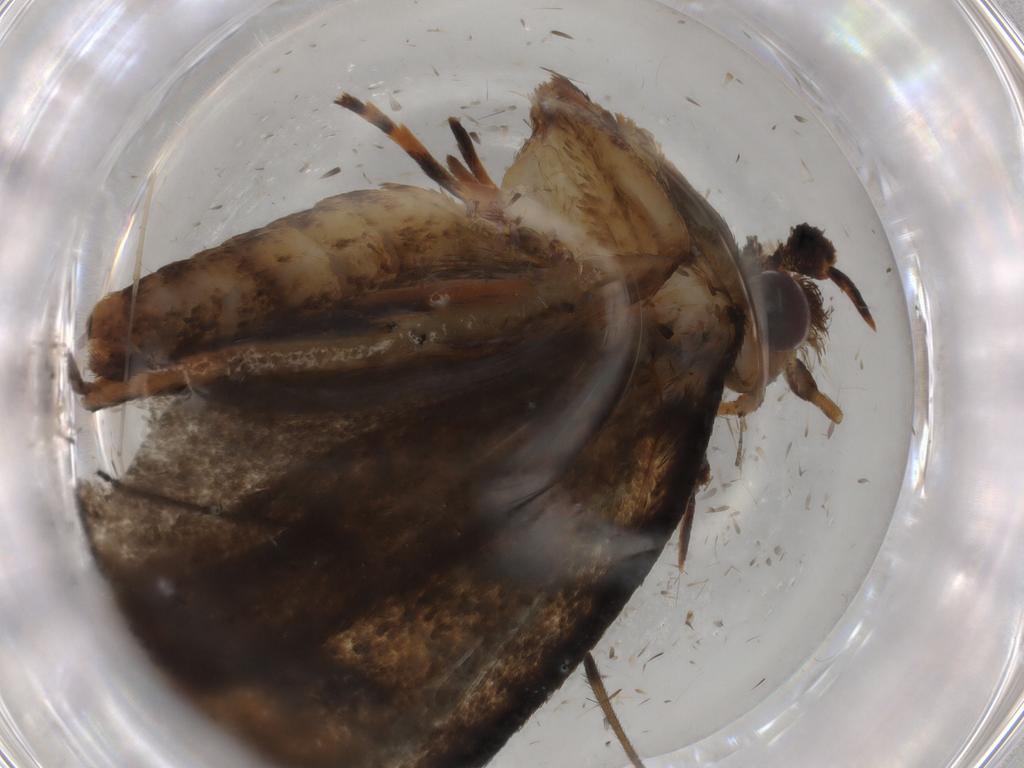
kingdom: Animalia
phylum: Arthropoda
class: Insecta
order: Lepidoptera
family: Tineidae
